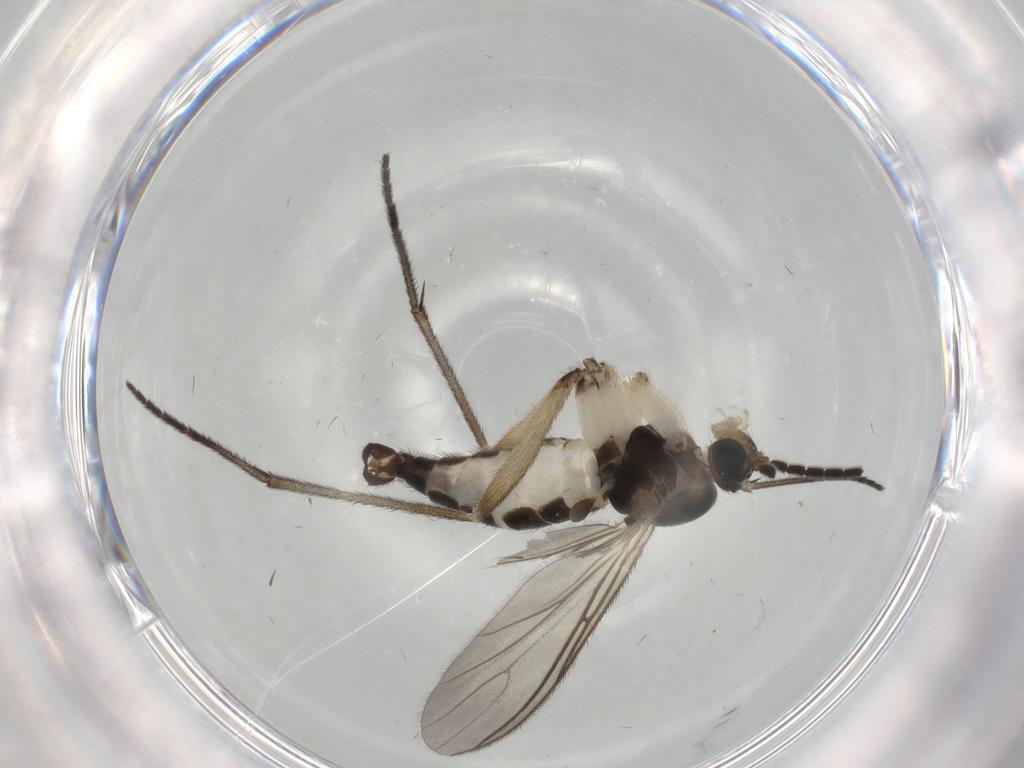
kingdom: Animalia
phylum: Arthropoda
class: Insecta
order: Diptera
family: Sciaridae
